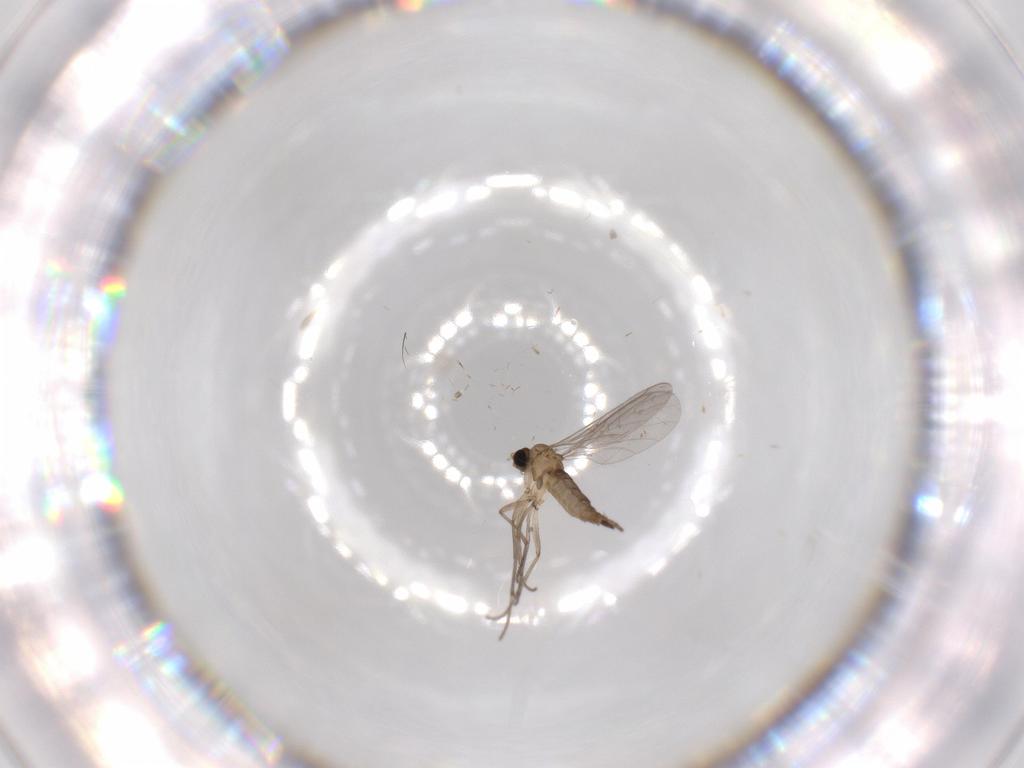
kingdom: Animalia
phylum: Arthropoda
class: Insecta
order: Diptera
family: Sciaridae
